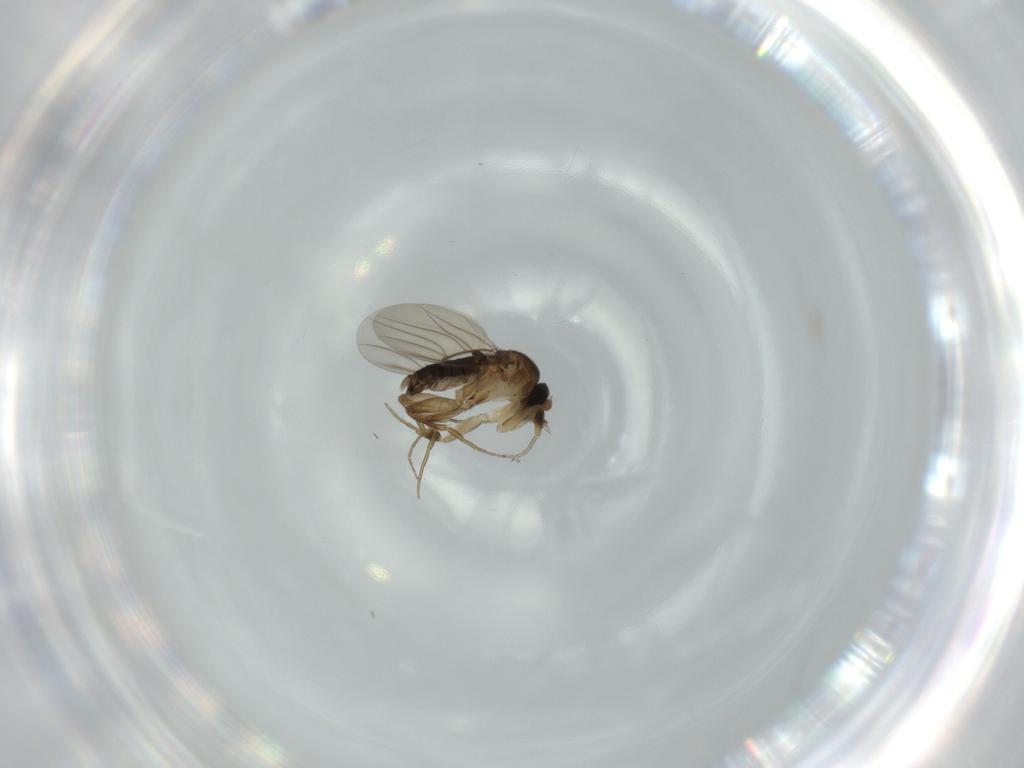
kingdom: Animalia
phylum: Arthropoda
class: Insecta
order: Diptera
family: Phoridae
